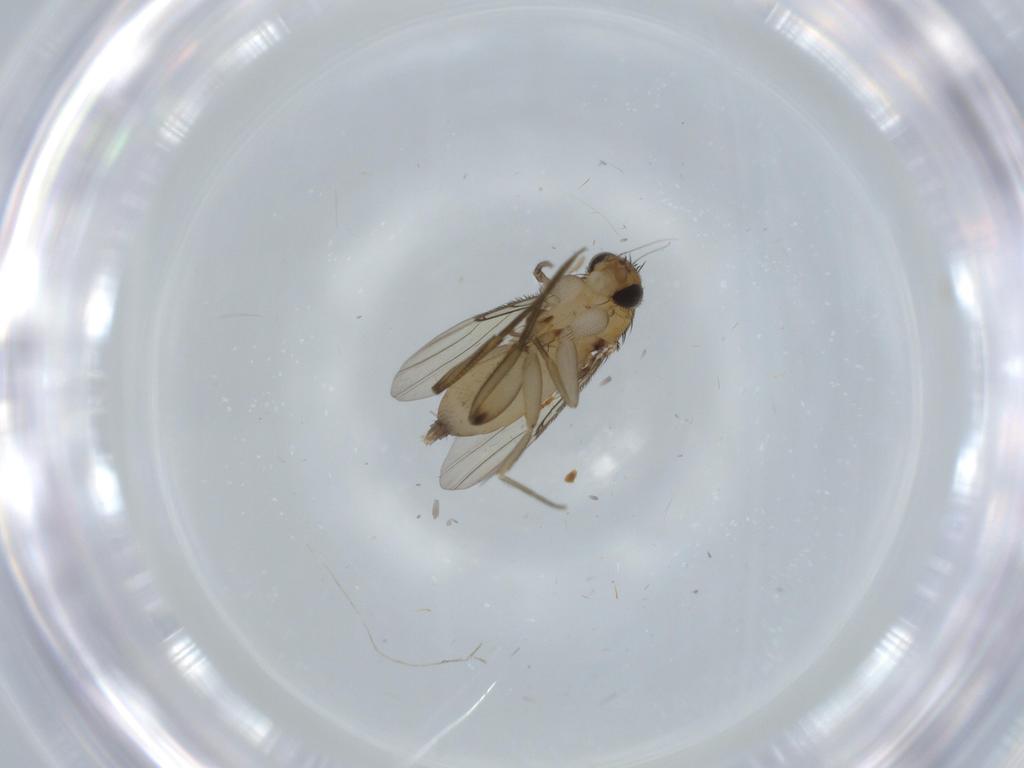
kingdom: Animalia
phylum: Arthropoda
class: Insecta
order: Diptera
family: Phoridae
